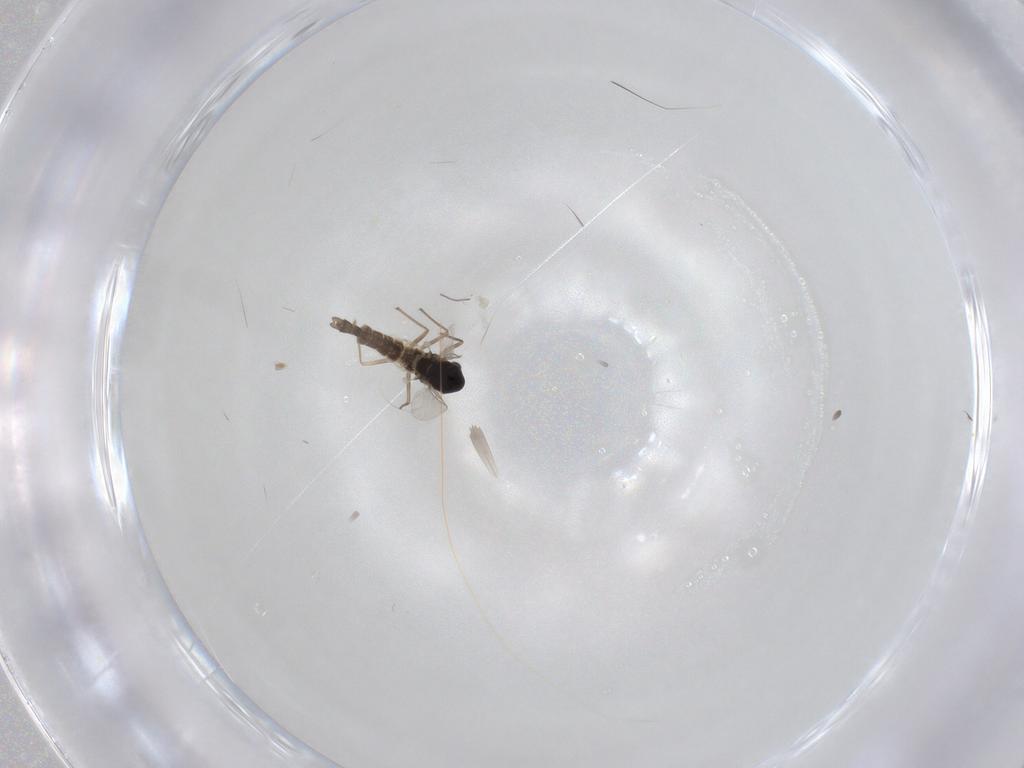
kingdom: Animalia
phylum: Arthropoda
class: Insecta
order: Diptera
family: Chironomidae
